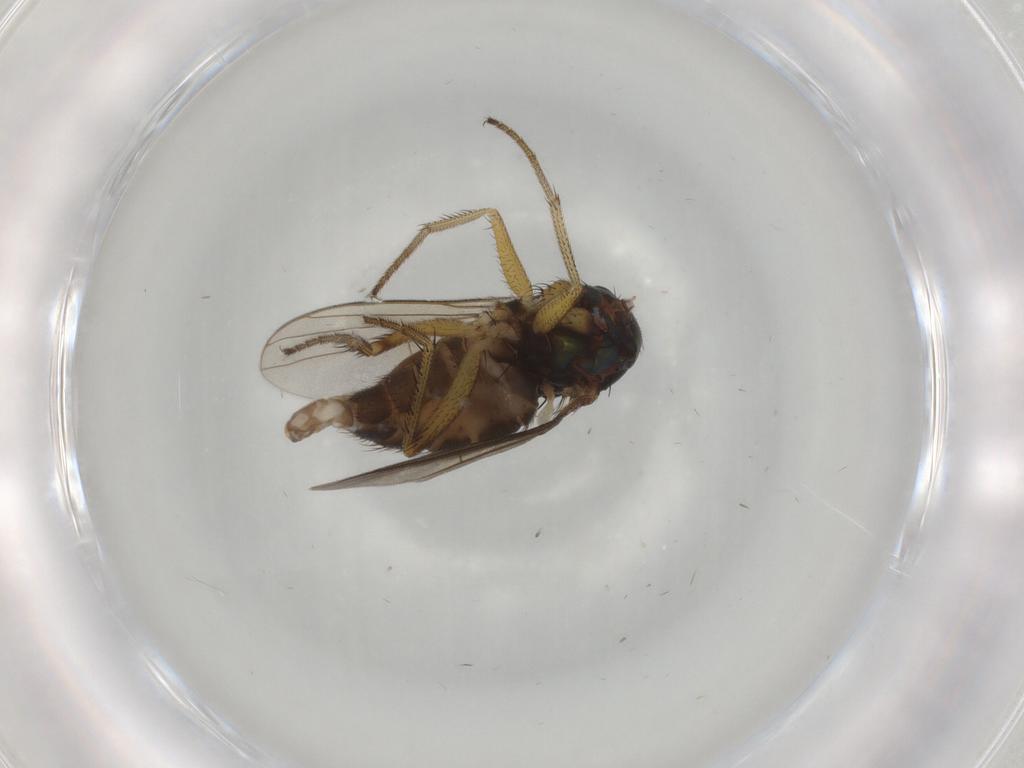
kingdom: Animalia
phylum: Arthropoda
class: Insecta
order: Diptera
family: Dolichopodidae
